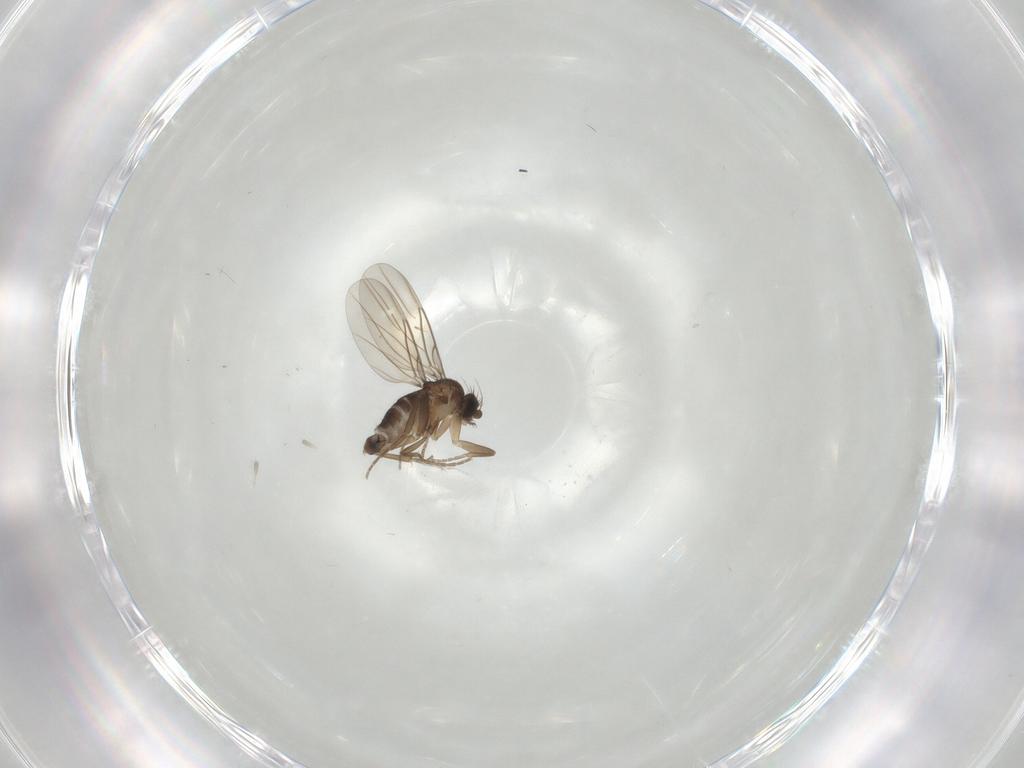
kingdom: Animalia
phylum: Arthropoda
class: Insecta
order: Diptera
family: Phoridae
